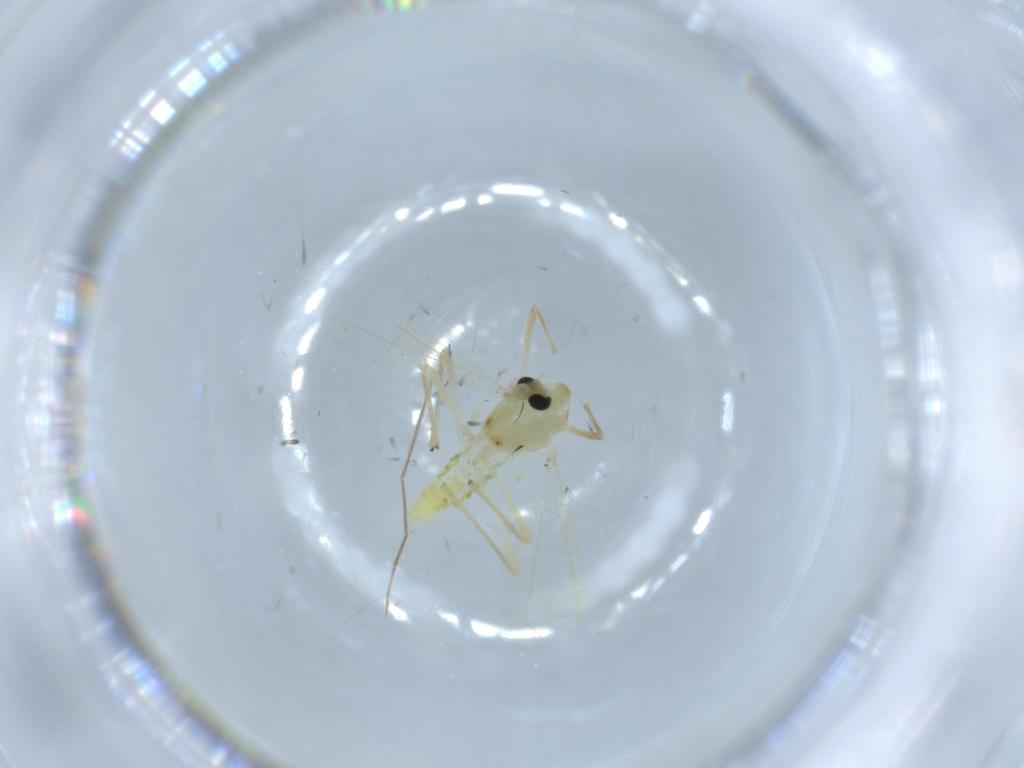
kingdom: Animalia
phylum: Arthropoda
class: Insecta
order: Diptera
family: Chironomidae
